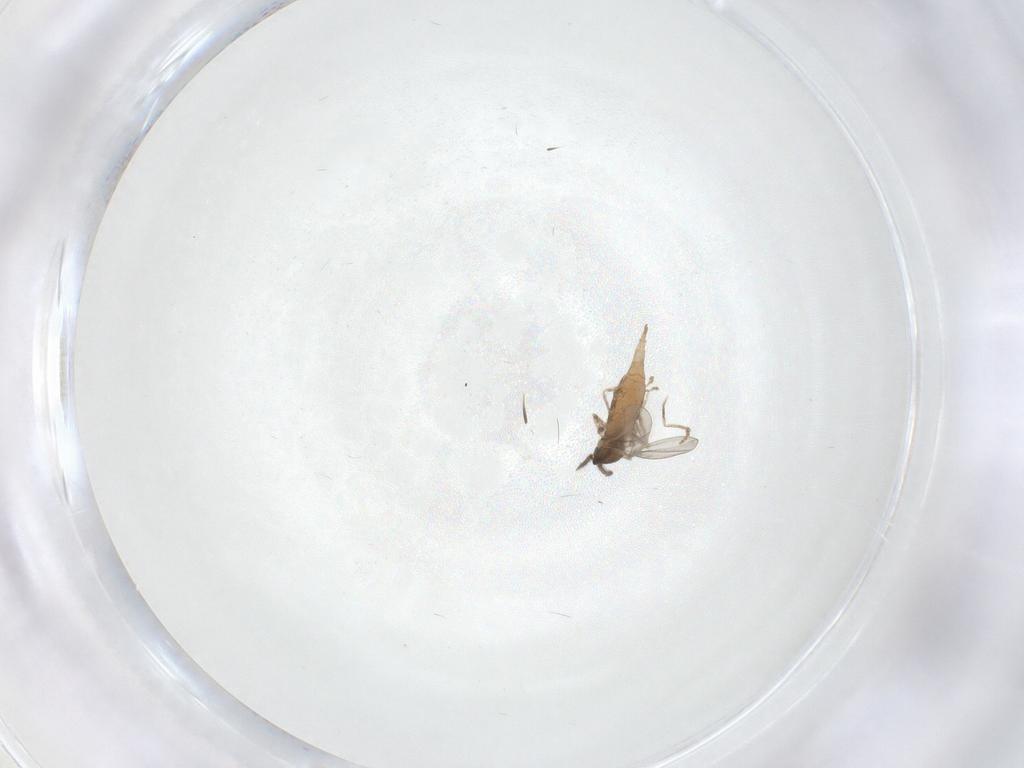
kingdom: Animalia
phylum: Arthropoda
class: Insecta
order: Diptera
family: Cecidomyiidae
